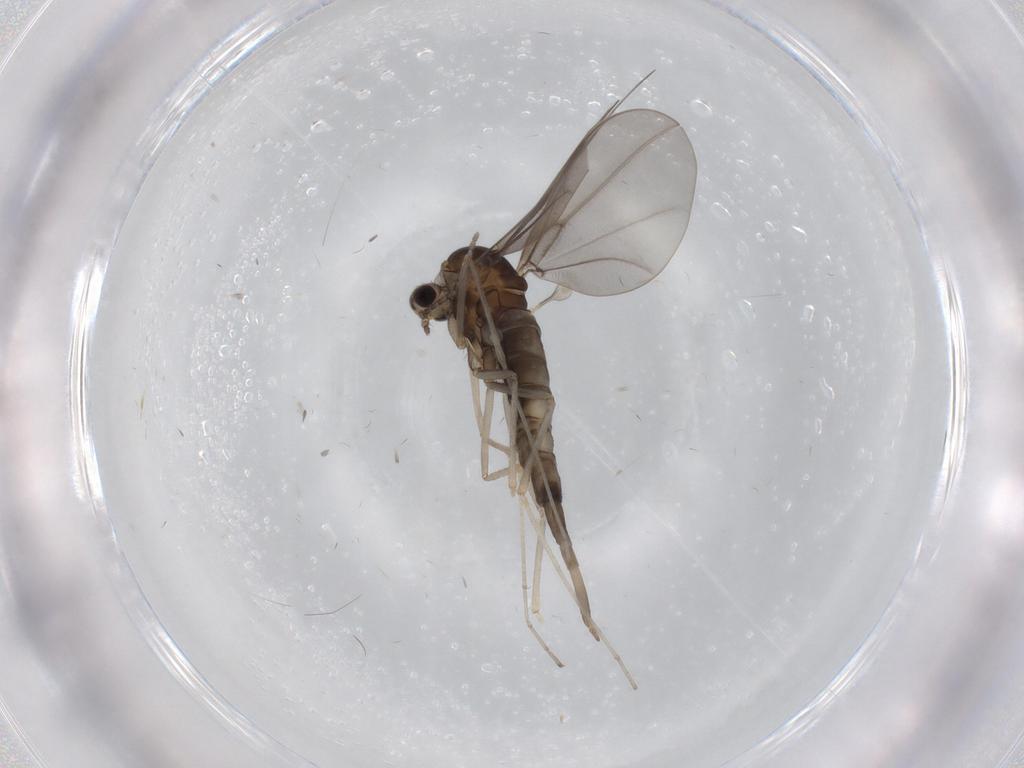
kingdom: Animalia
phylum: Arthropoda
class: Insecta
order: Diptera
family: Cecidomyiidae
